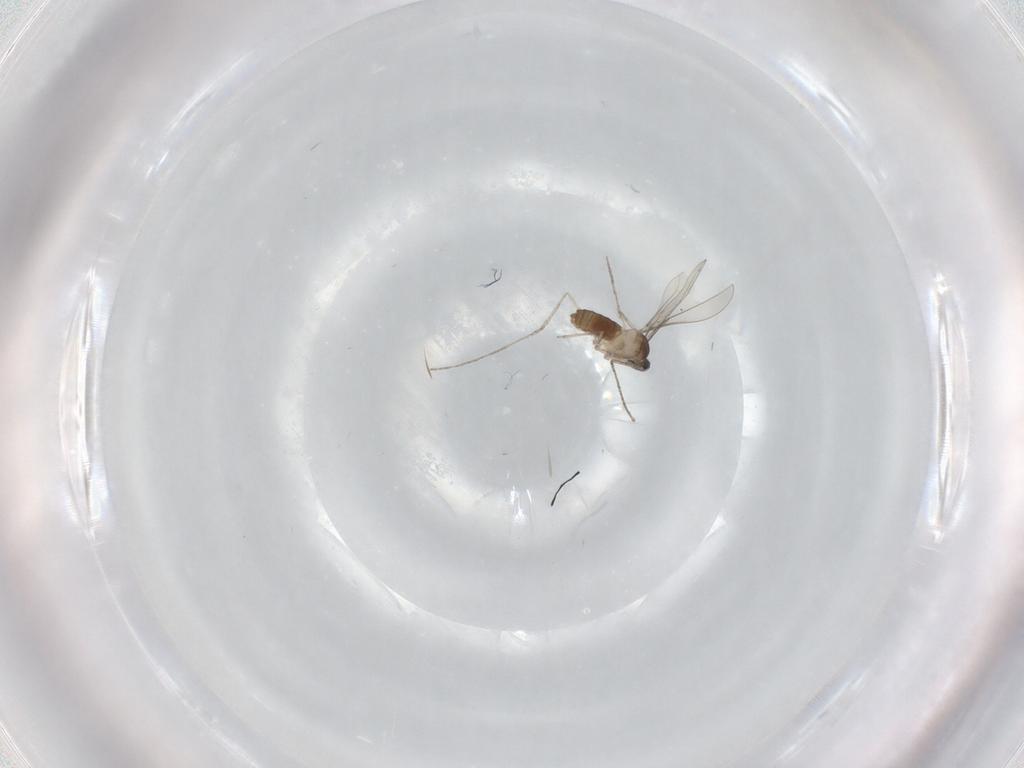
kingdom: Animalia
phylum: Arthropoda
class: Insecta
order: Diptera
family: Cecidomyiidae
